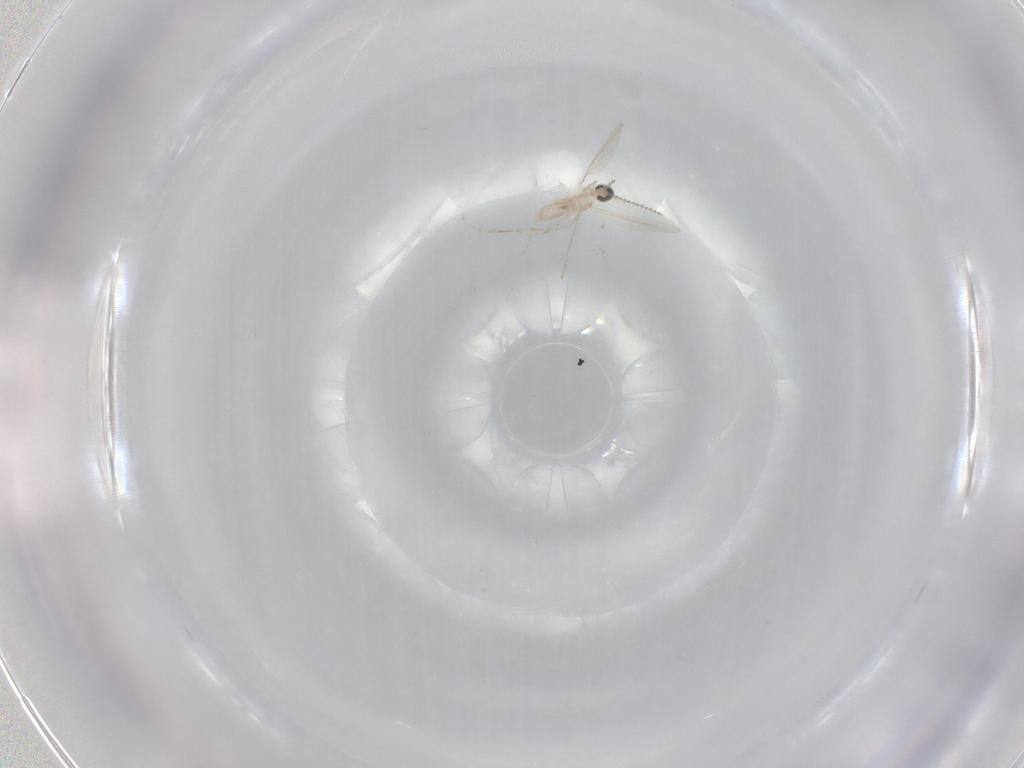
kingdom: Animalia
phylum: Arthropoda
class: Insecta
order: Diptera
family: Cecidomyiidae
